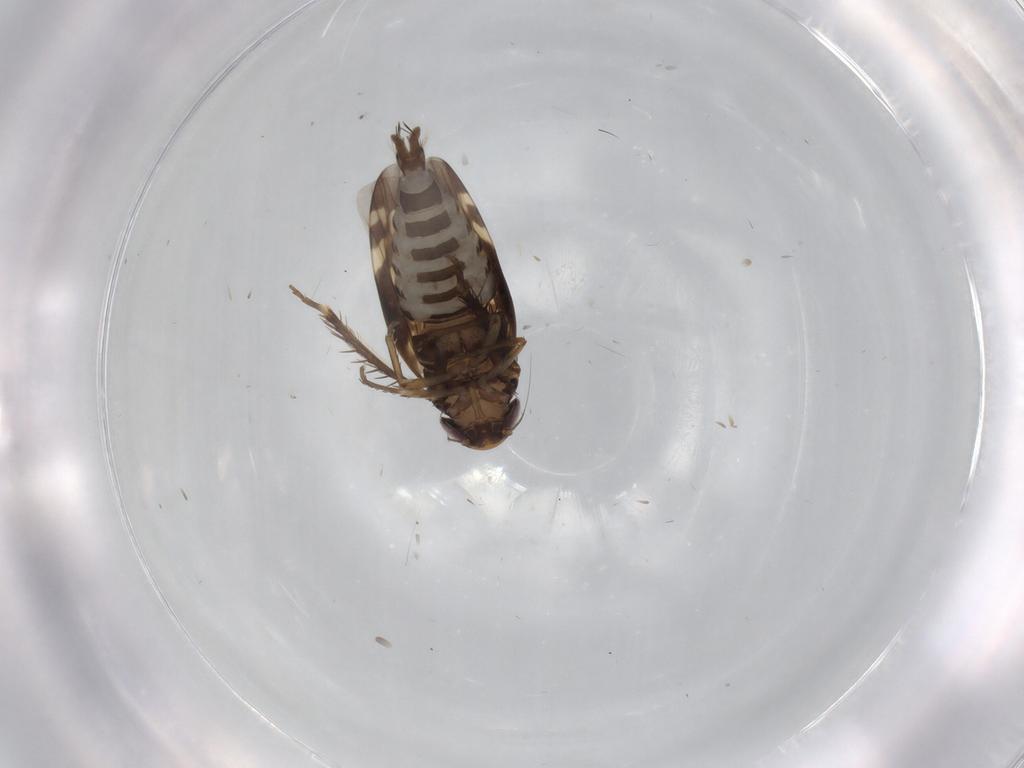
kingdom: Animalia
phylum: Arthropoda
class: Insecta
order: Hemiptera
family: Cicadellidae
